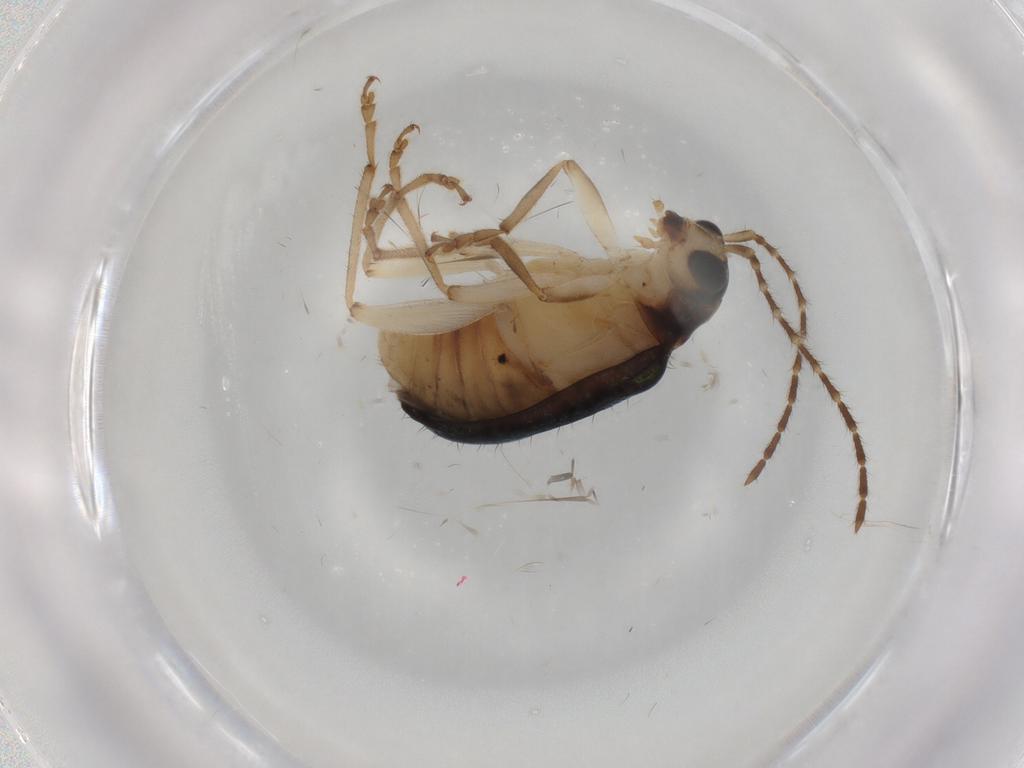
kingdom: Animalia
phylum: Arthropoda
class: Insecta
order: Coleoptera
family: Chrysomelidae
